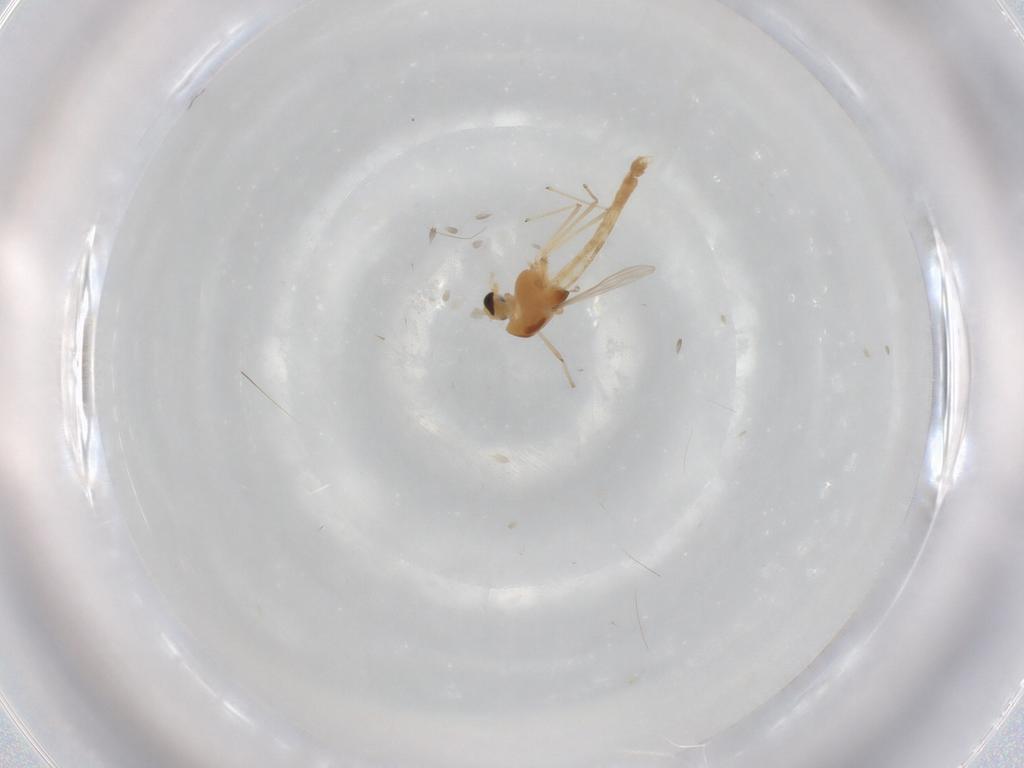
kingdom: Animalia
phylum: Arthropoda
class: Insecta
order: Diptera
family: Chironomidae
